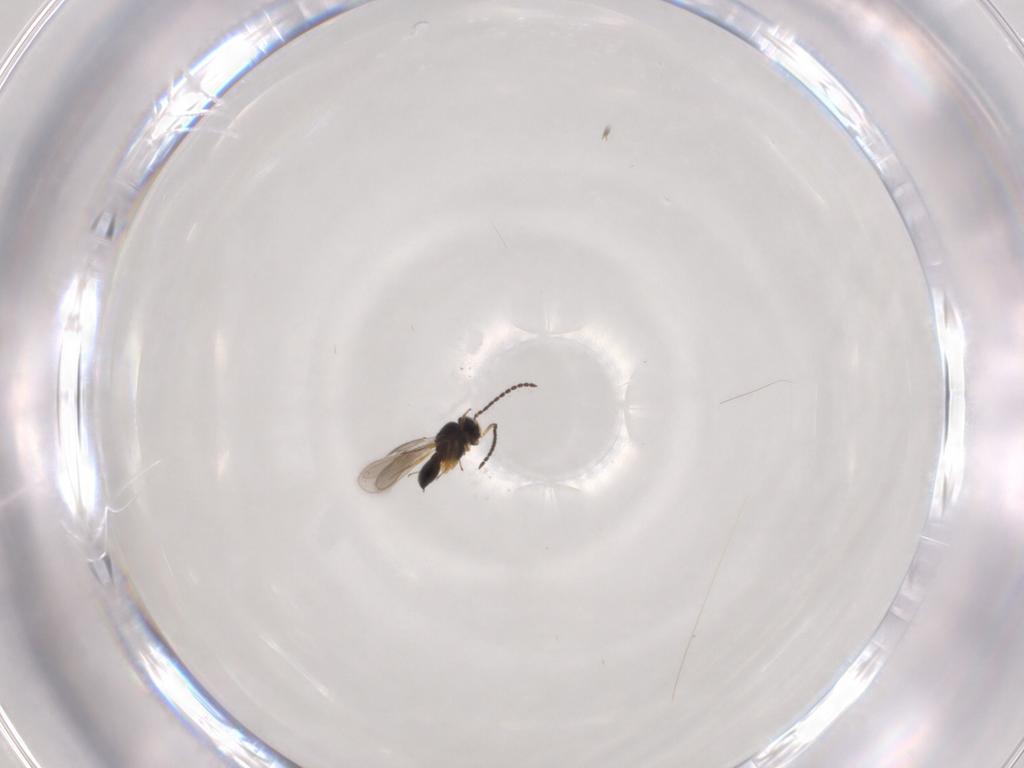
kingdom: Animalia
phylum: Arthropoda
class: Insecta
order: Hymenoptera
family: Scelionidae
